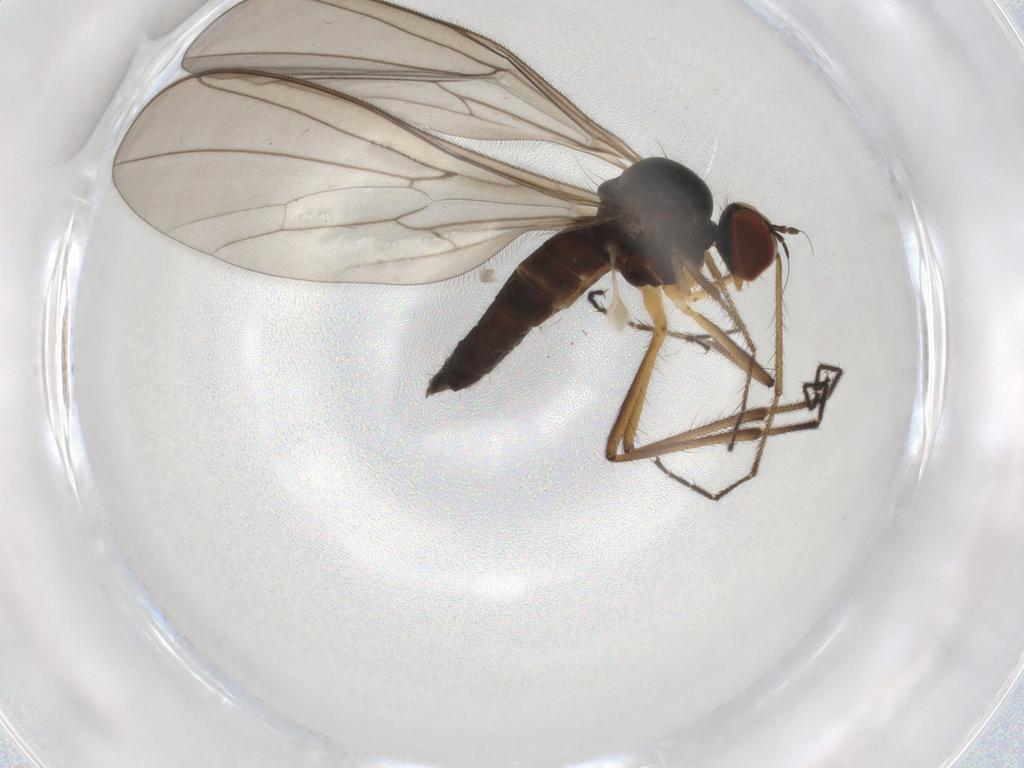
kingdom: Animalia
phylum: Arthropoda
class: Insecta
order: Diptera
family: Hybotidae
